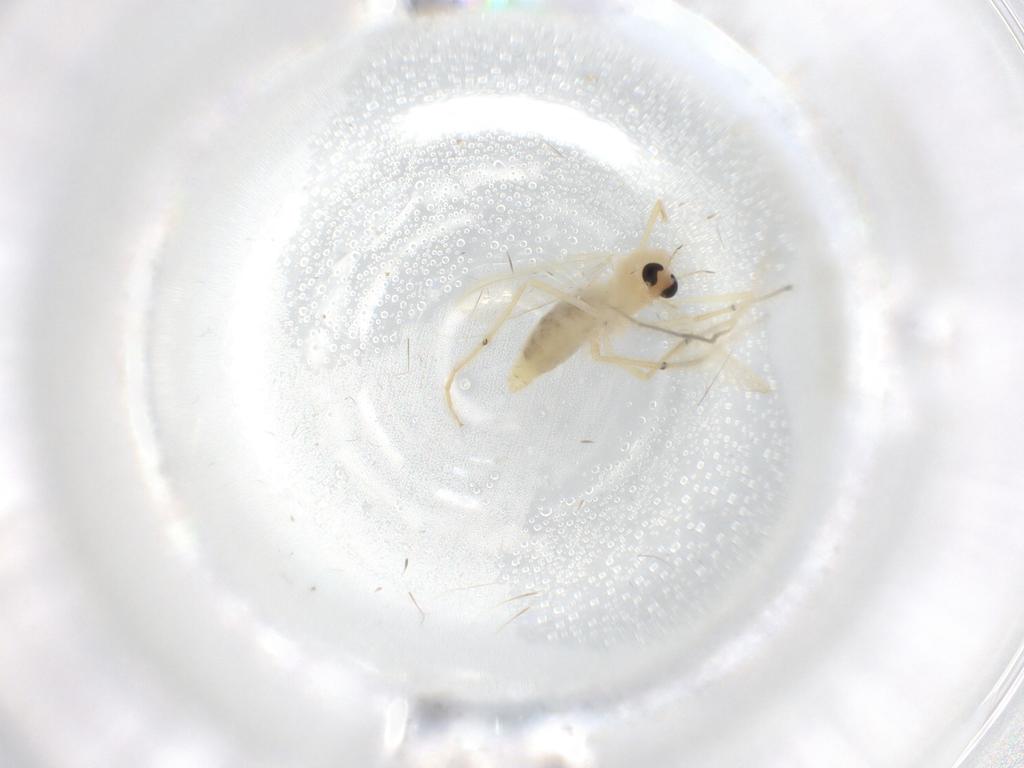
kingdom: Animalia
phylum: Arthropoda
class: Insecta
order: Diptera
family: Chironomidae
